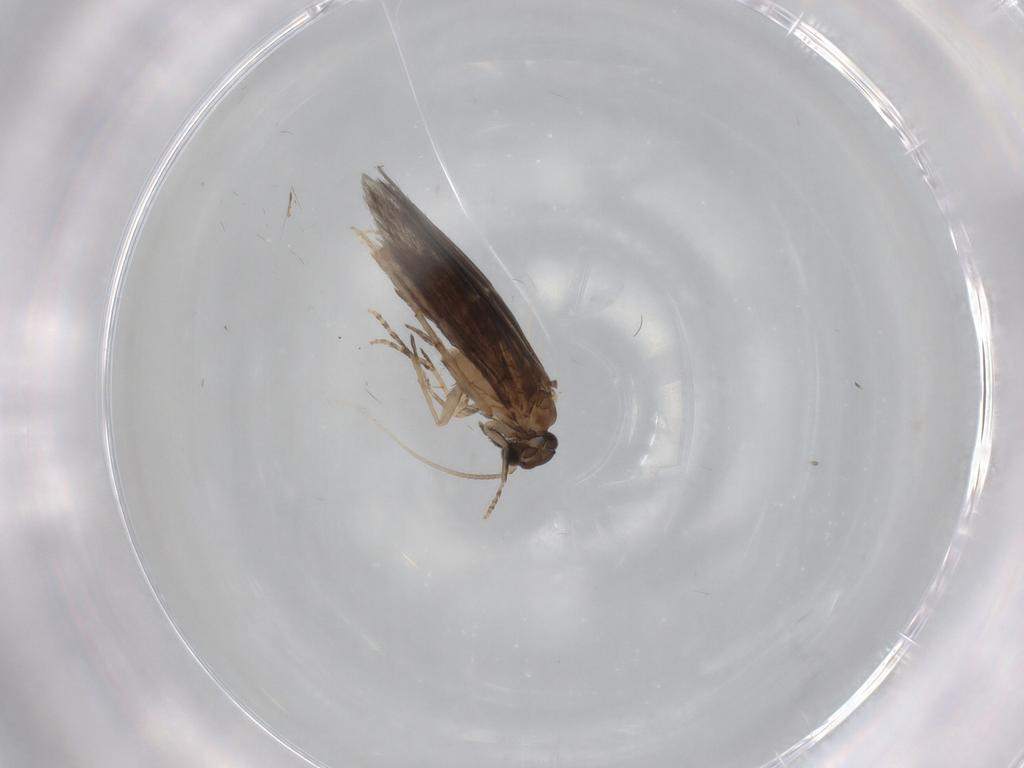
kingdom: Animalia
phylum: Arthropoda
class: Insecta
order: Trichoptera
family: Hydroptilidae
